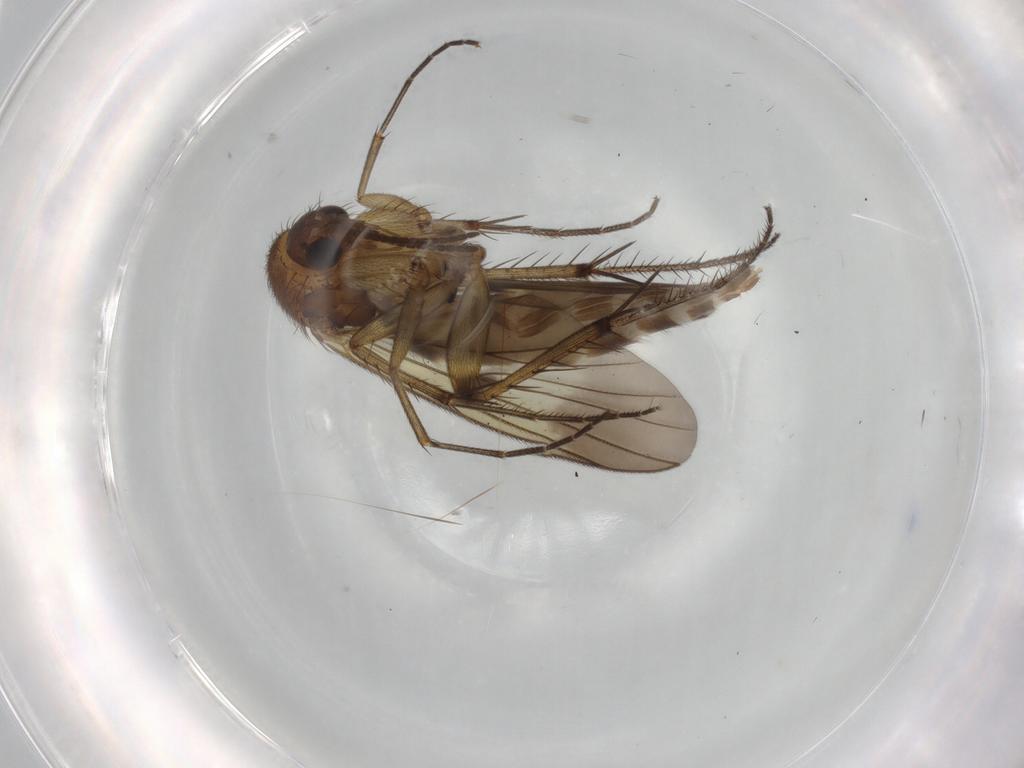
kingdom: Animalia
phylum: Arthropoda
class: Insecta
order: Diptera
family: Mycetophilidae
